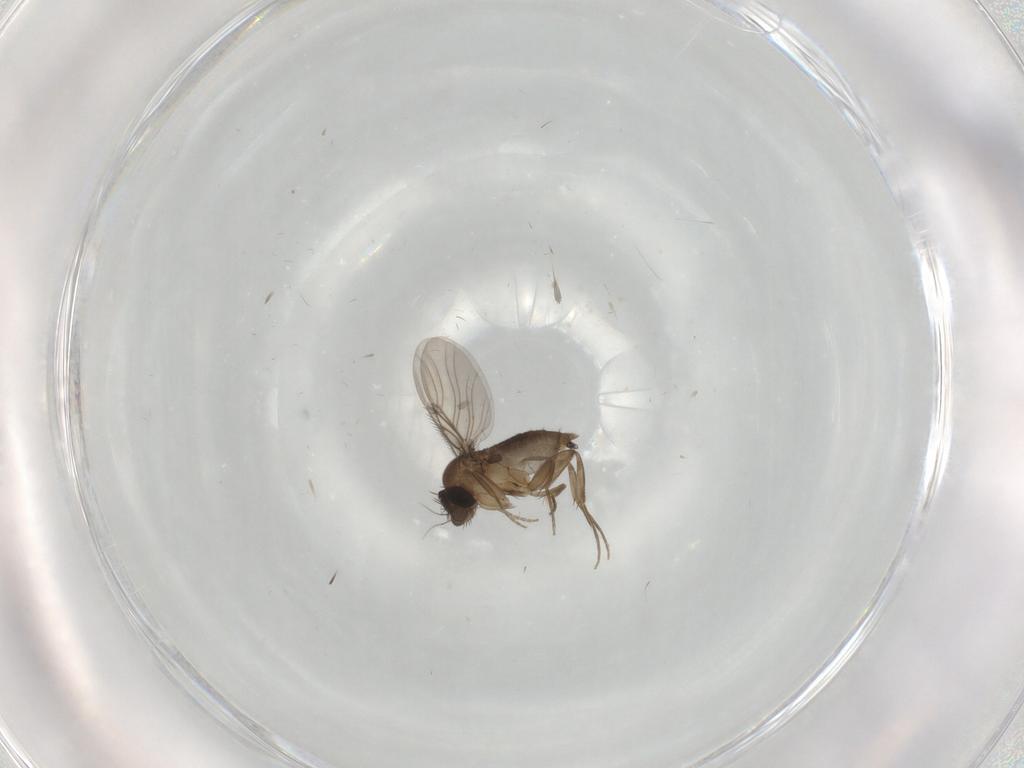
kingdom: Animalia
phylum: Arthropoda
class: Insecta
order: Diptera
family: Phoridae
